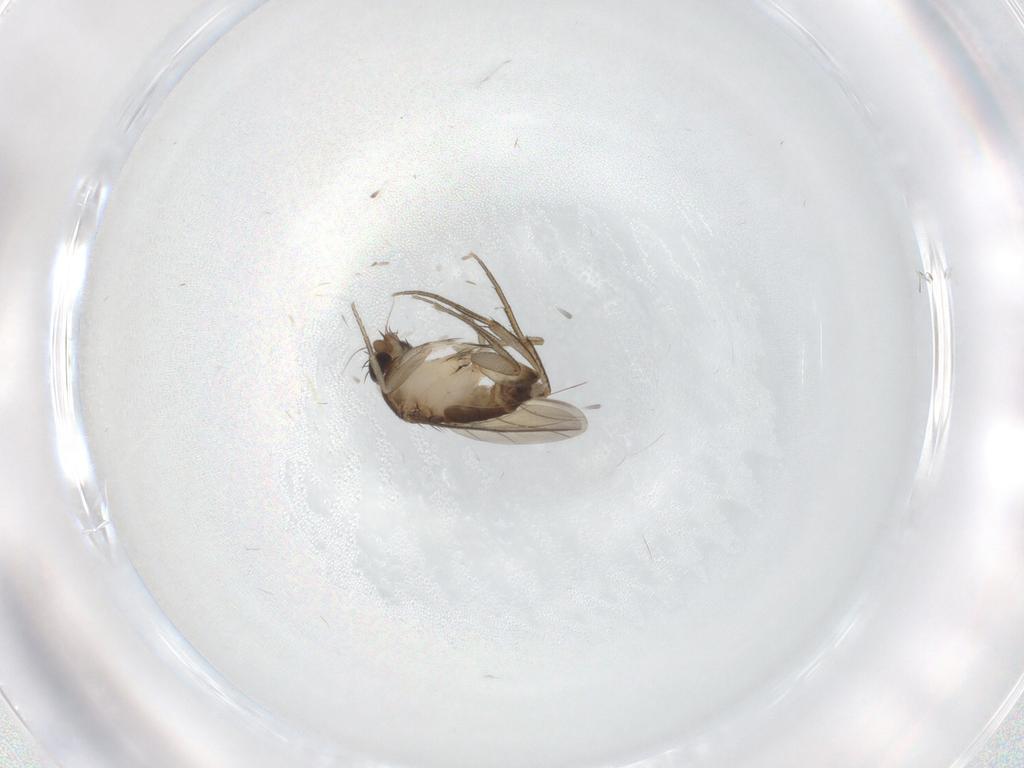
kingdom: Animalia
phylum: Arthropoda
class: Insecta
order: Diptera
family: Phoridae
